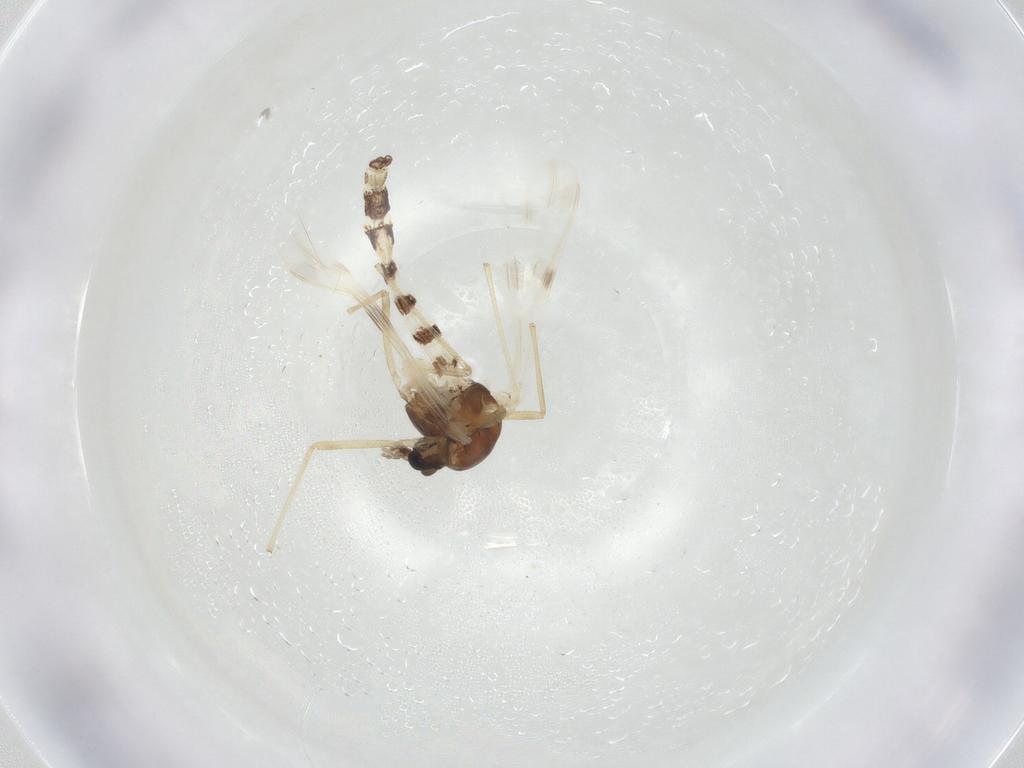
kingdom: Animalia
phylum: Arthropoda
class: Insecta
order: Diptera
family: Chironomidae
